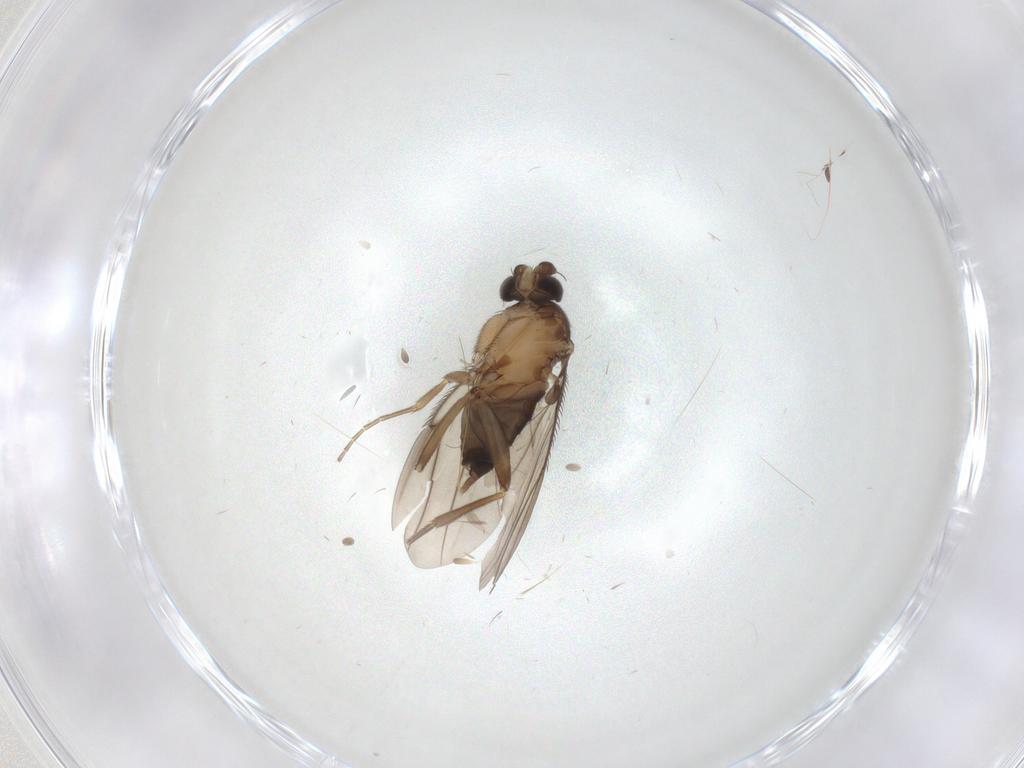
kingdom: Animalia
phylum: Arthropoda
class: Insecta
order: Diptera
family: Chironomidae
